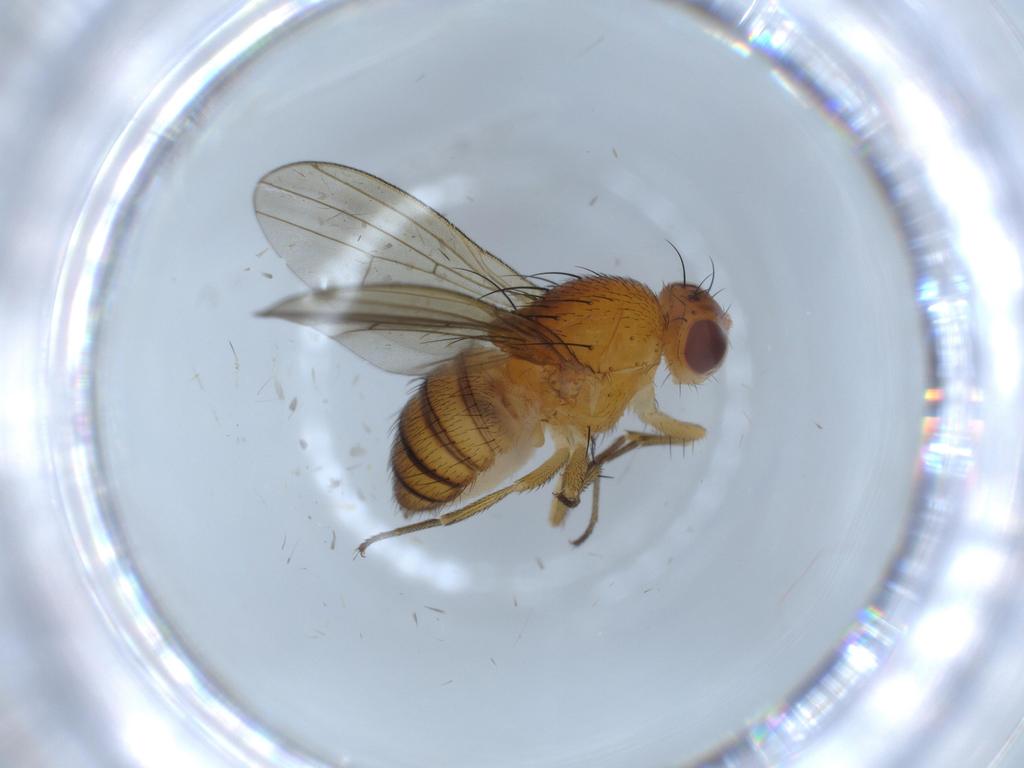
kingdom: Animalia
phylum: Arthropoda
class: Insecta
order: Diptera
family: Lauxaniidae
